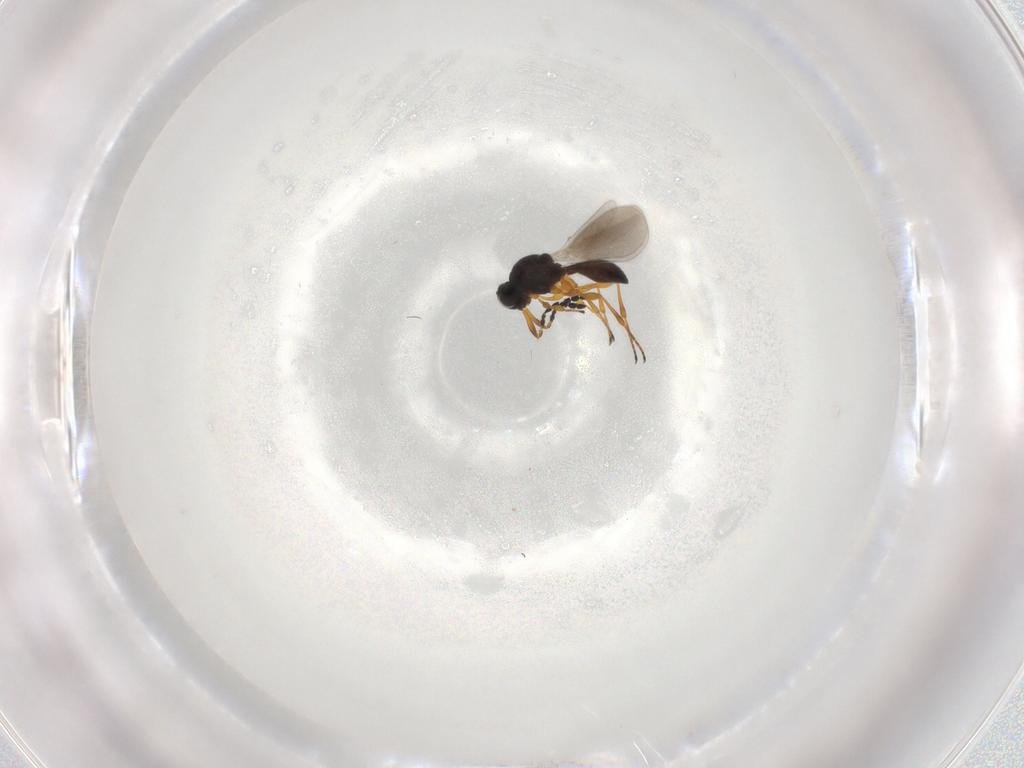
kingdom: Animalia
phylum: Arthropoda
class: Insecta
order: Hymenoptera
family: Platygastridae
